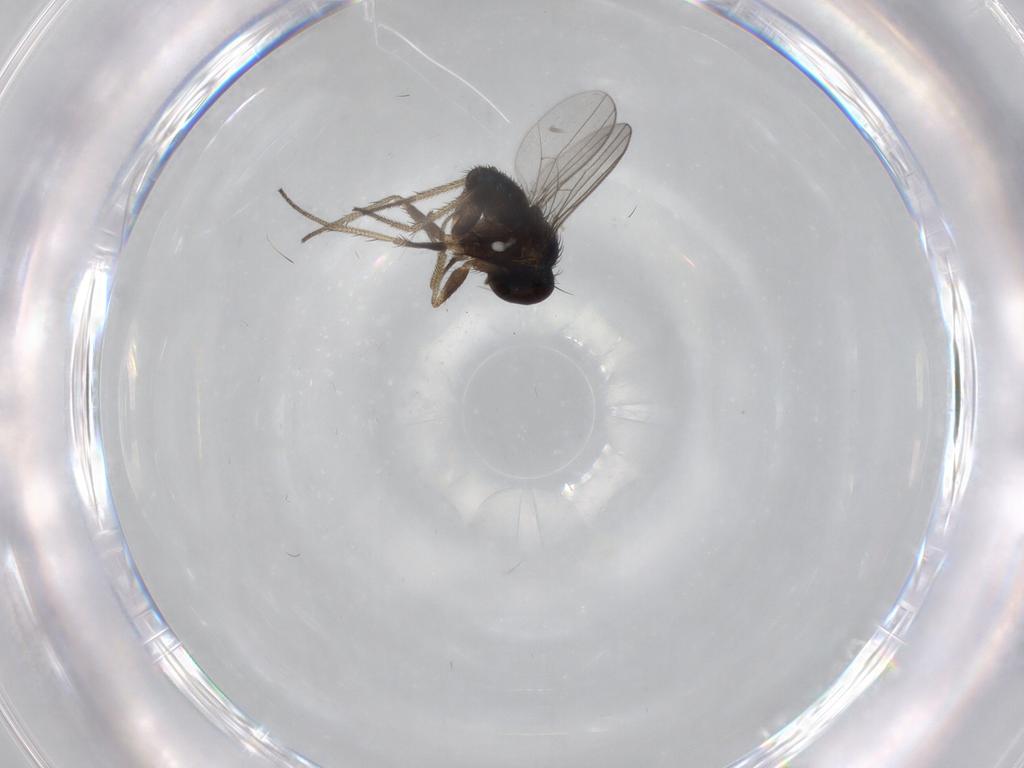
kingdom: Animalia
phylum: Arthropoda
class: Insecta
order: Diptera
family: Dolichopodidae
